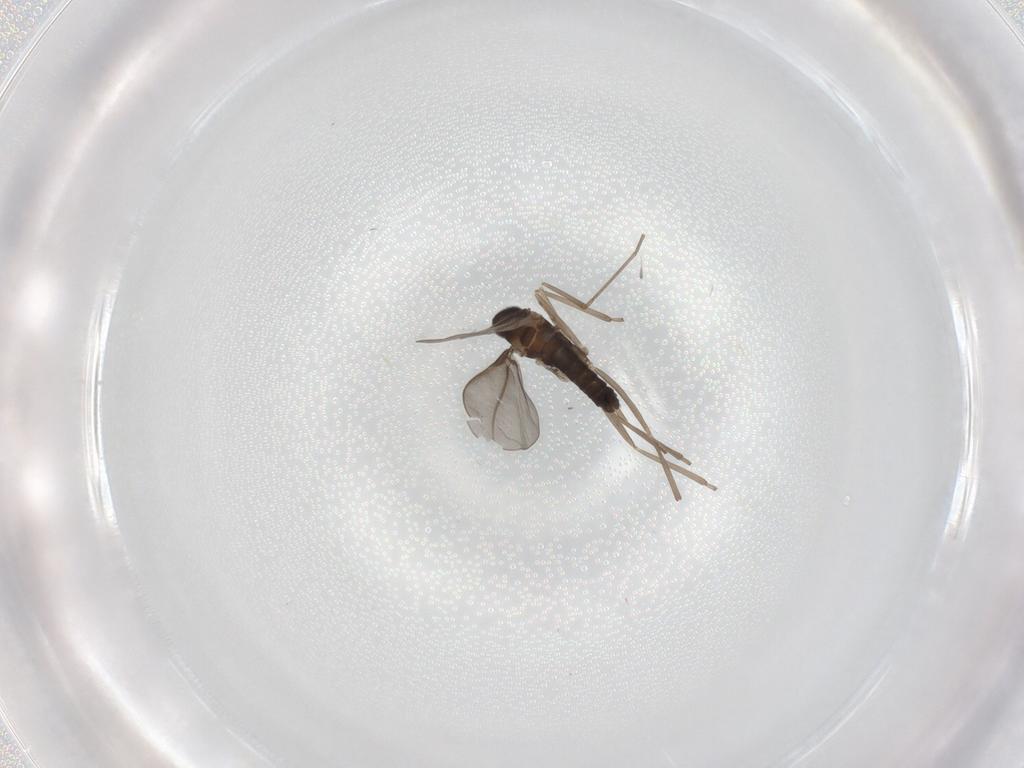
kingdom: Animalia
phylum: Arthropoda
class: Insecta
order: Diptera
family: Cecidomyiidae
